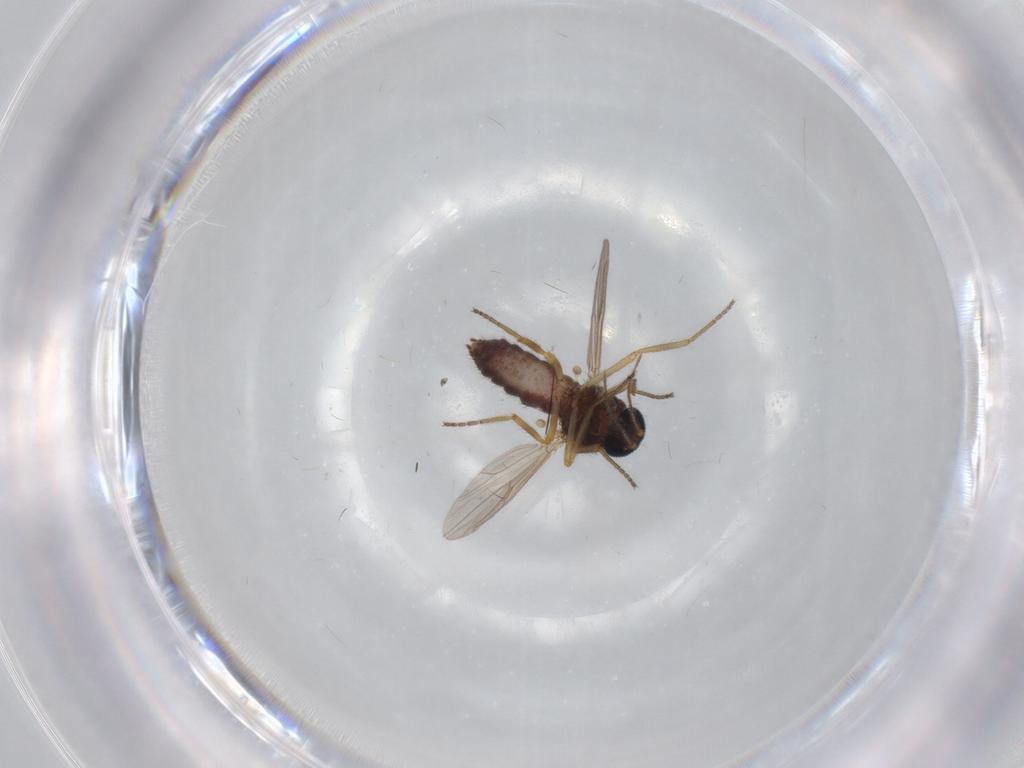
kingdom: Animalia
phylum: Arthropoda
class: Insecta
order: Diptera
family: Ceratopogonidae
